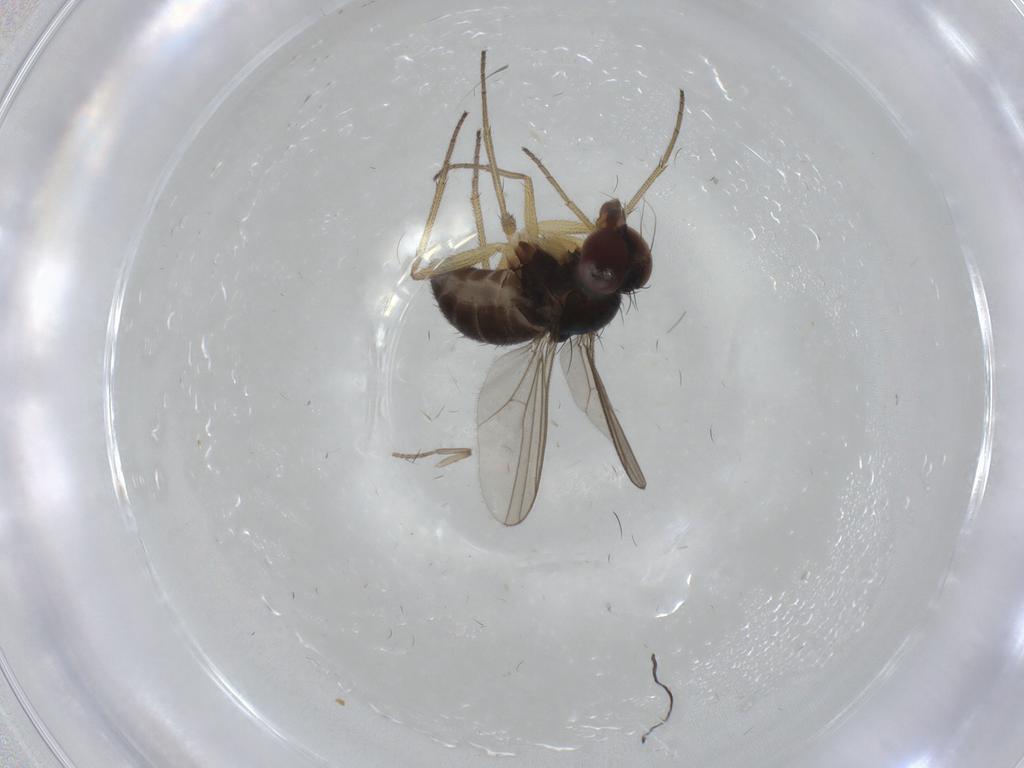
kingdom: Animalia
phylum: Arthropoda
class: Insecta
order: Diptera
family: Dolichopodidae
